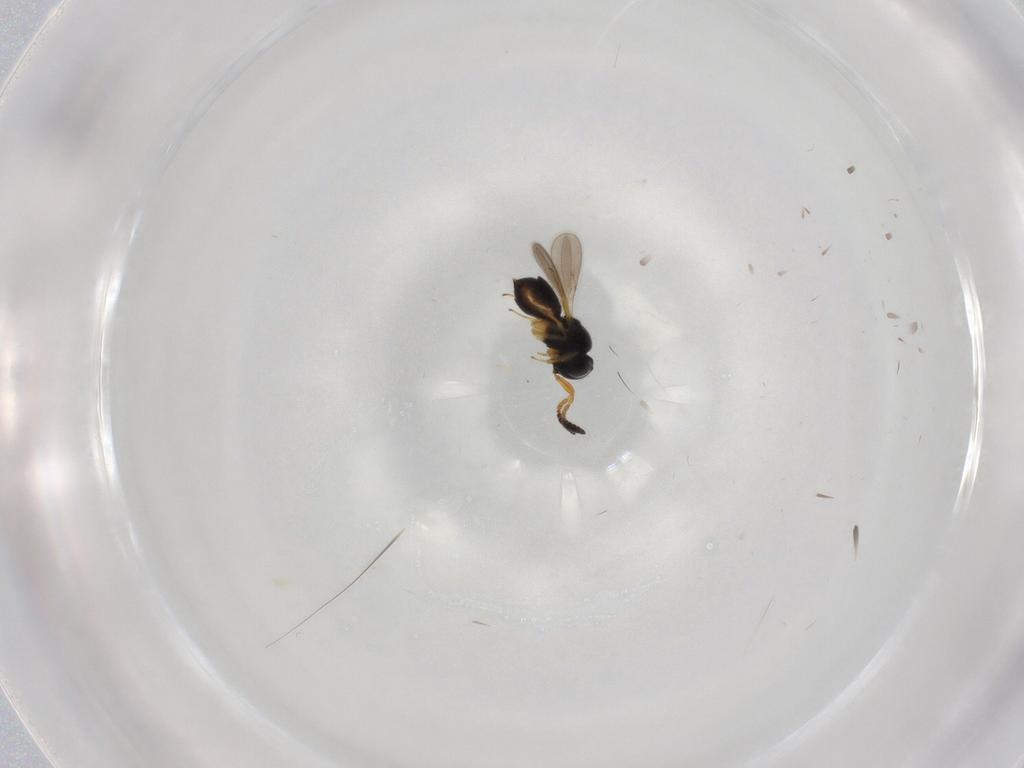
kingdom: Animalia
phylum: Arthropoda
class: Insecta
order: Hymenoptera
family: Scelionidae
